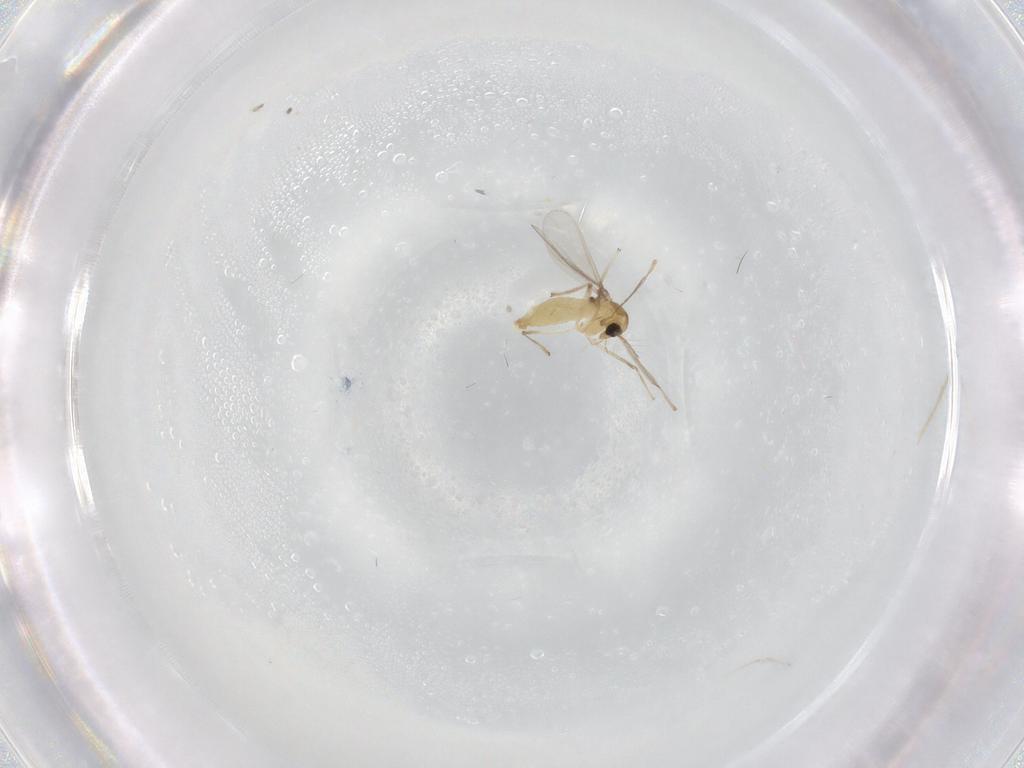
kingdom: Animalia
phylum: Arthropoda
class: Insecta
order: Diptera
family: Chironomidae
